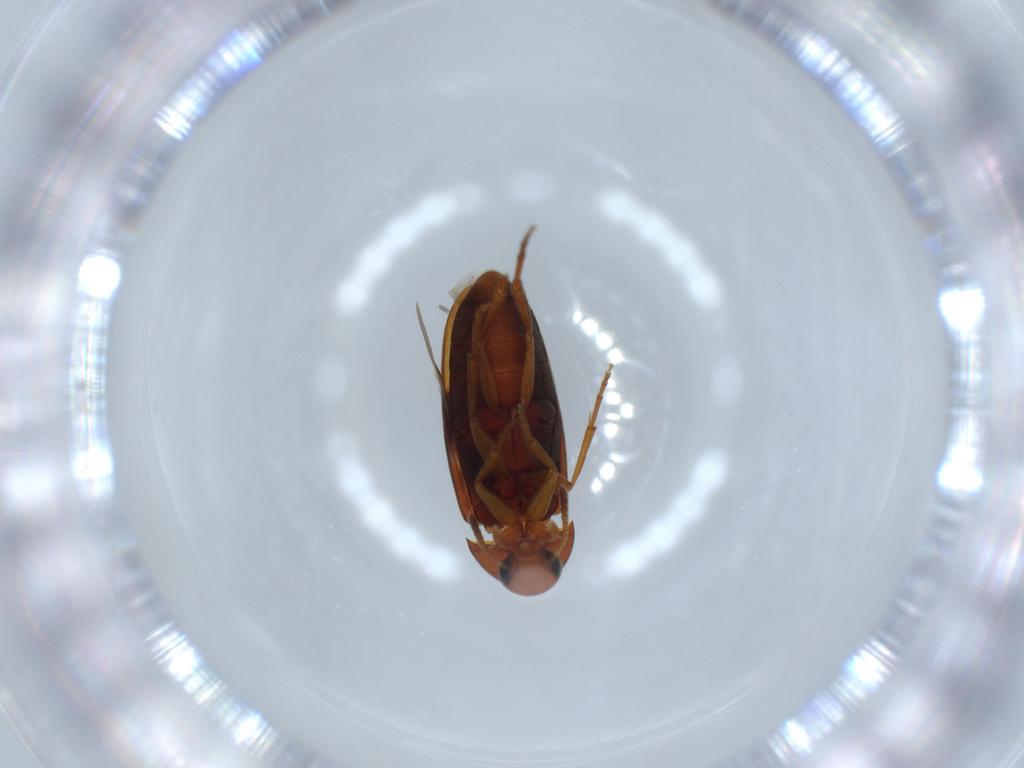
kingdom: Animalia
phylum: Arthropoda
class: Insecta
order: Coleoptera
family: Scraptiidae
